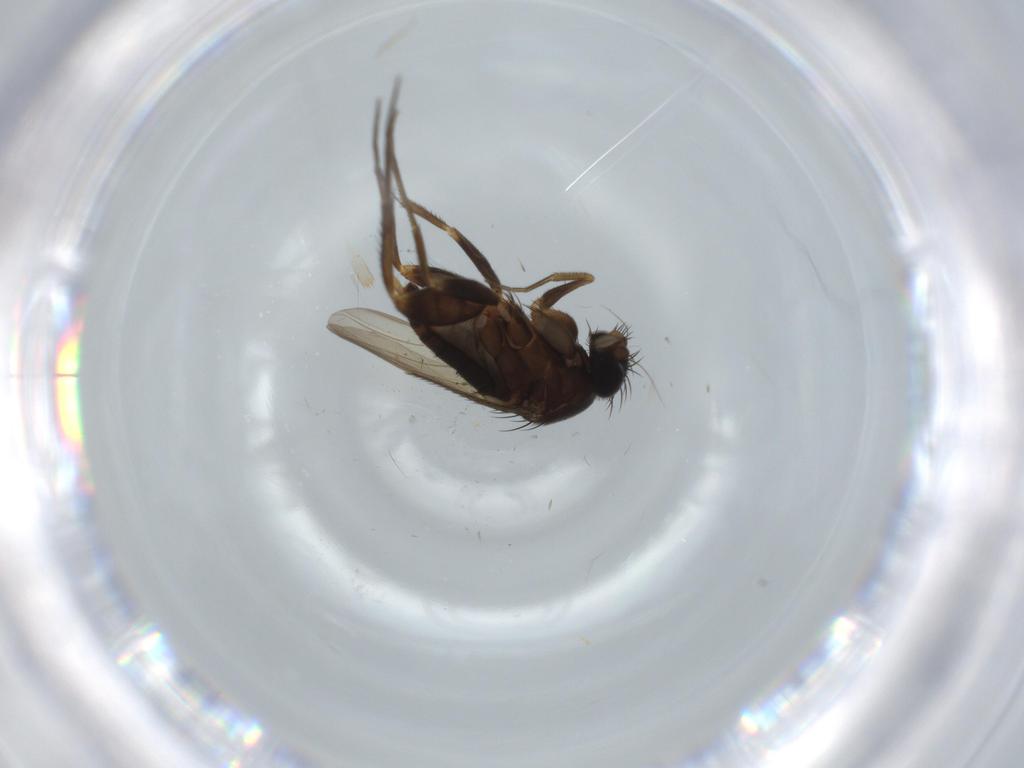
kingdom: Animalia
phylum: Arthropoda
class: Insecta
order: Diptera
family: Phoridae
